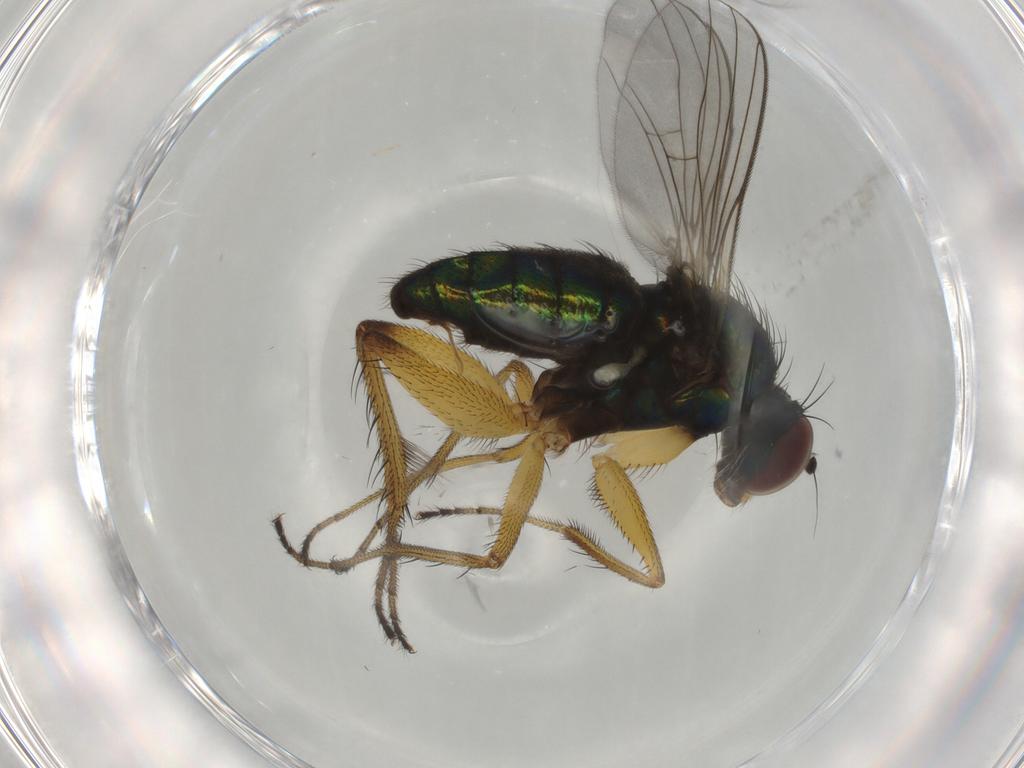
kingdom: Animalia
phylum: Arthropoda
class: Insecta
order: Diptera
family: Dolichopodidae
